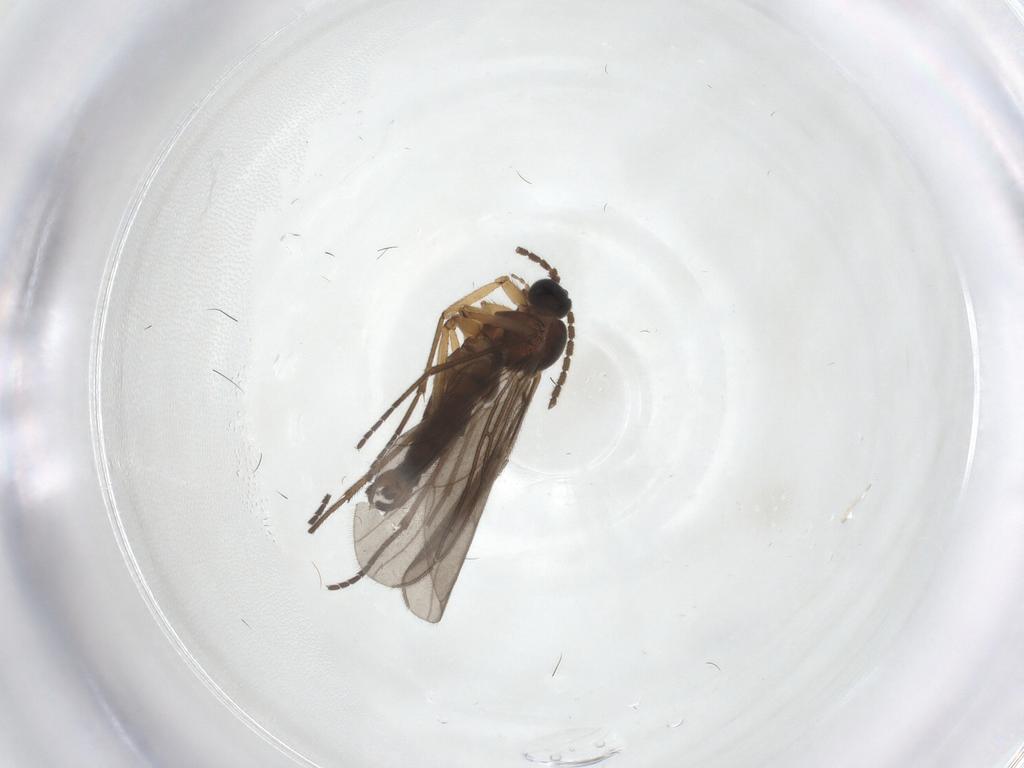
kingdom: Animalia
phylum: Arthropoda
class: Insecta
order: Diptera
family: Sciaridae
